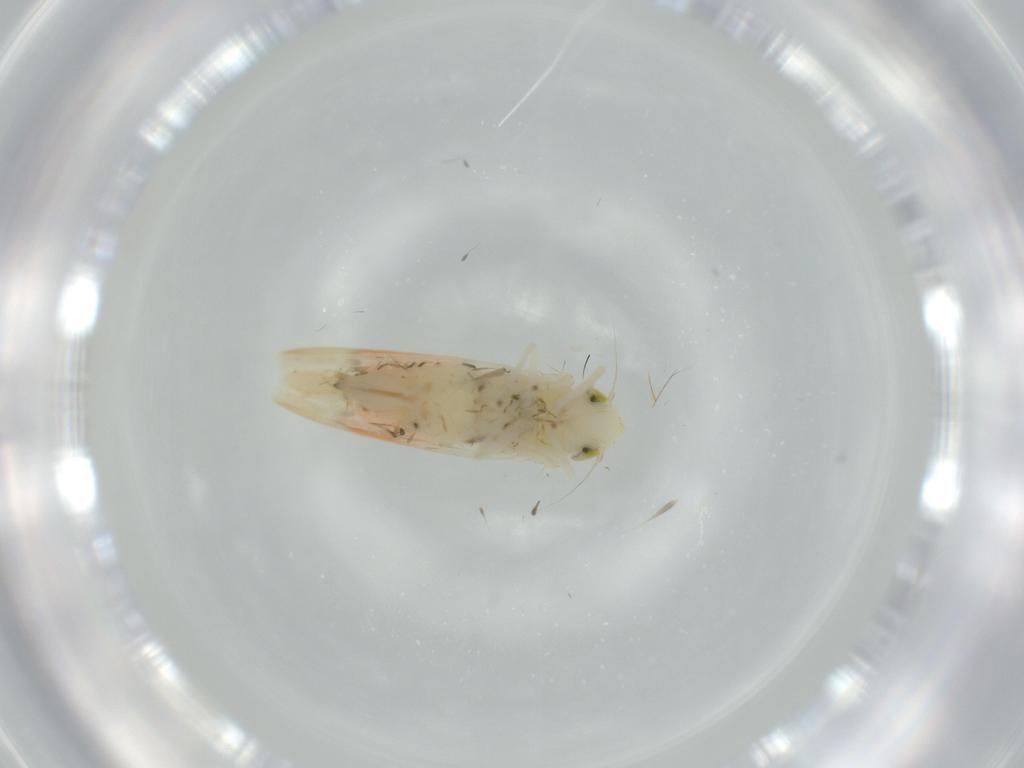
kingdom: Animalia
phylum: Arthropoda
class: Insecta
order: Hemiptera
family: Cicadellidae
